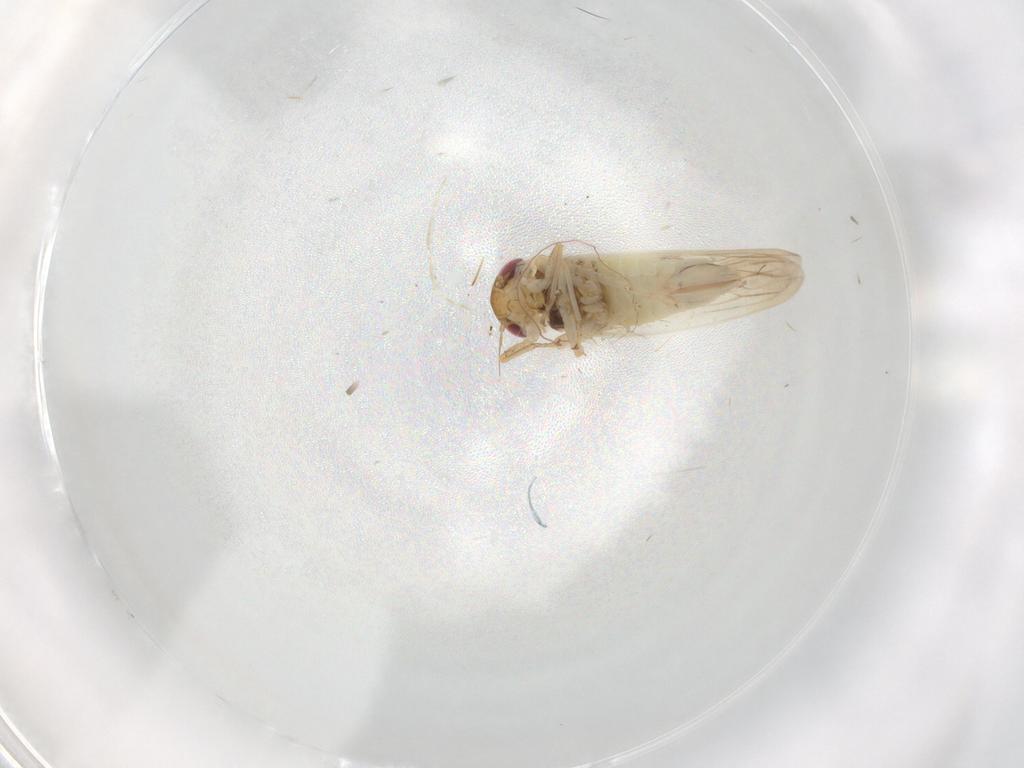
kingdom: Animalia
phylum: Arthropoda
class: Insecta
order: Hemiptera
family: Cicadellidae
